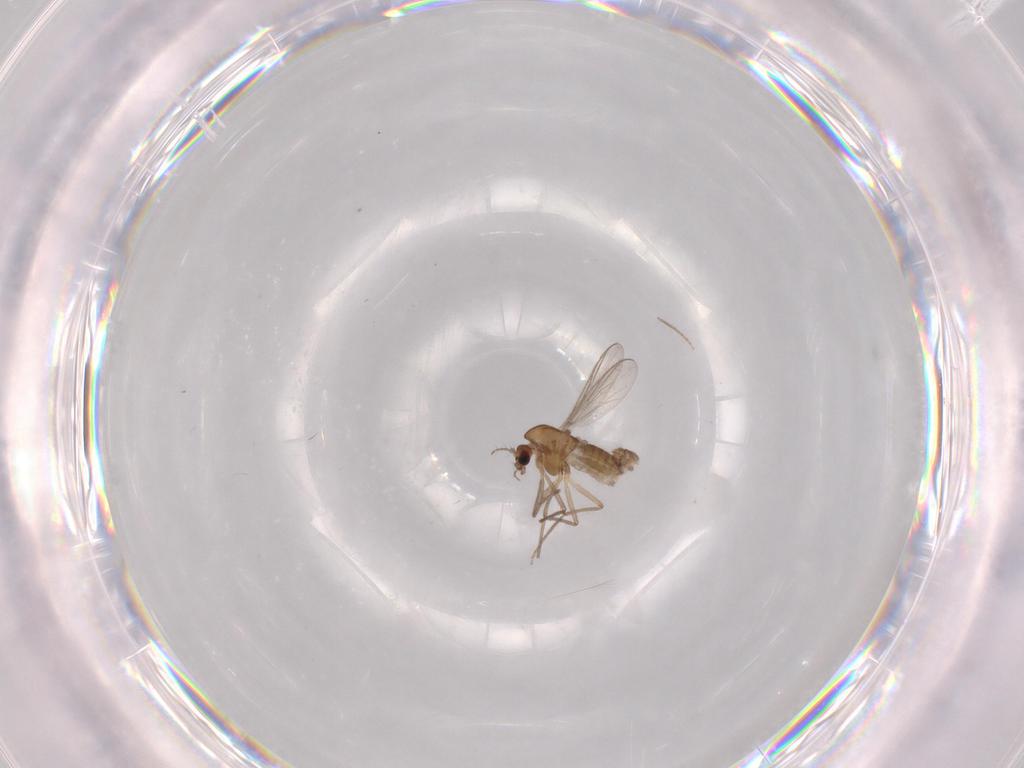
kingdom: Animalia
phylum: Arthropoda
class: Insecta
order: Diptera
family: Chironomidae
